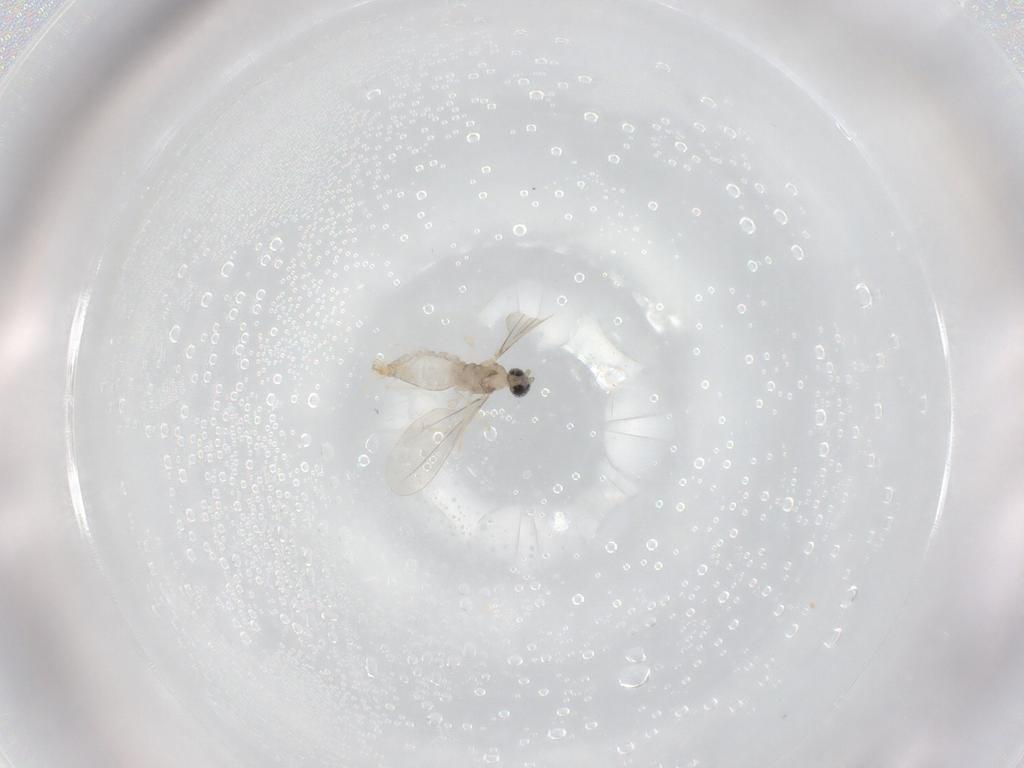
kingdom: Animalia
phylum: Arthropoda
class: Insecta
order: Diptera
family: Cecidomyiidae
